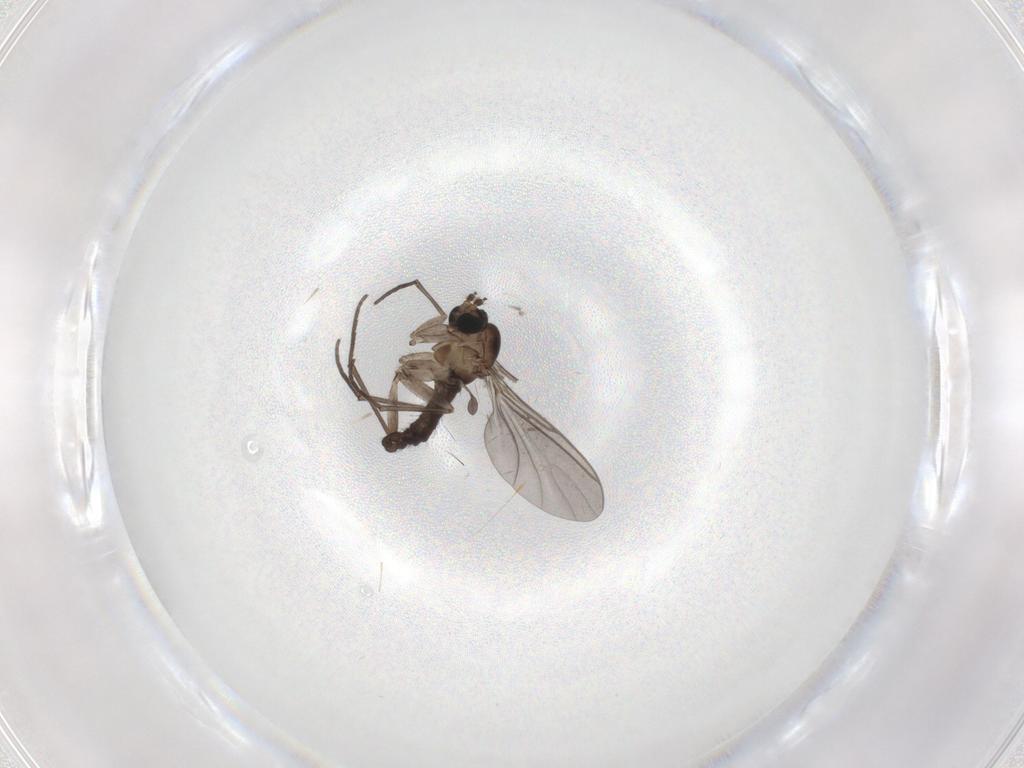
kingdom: Animalia
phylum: Arthropoda
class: Insecta
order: Diptera
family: Sciaridae
